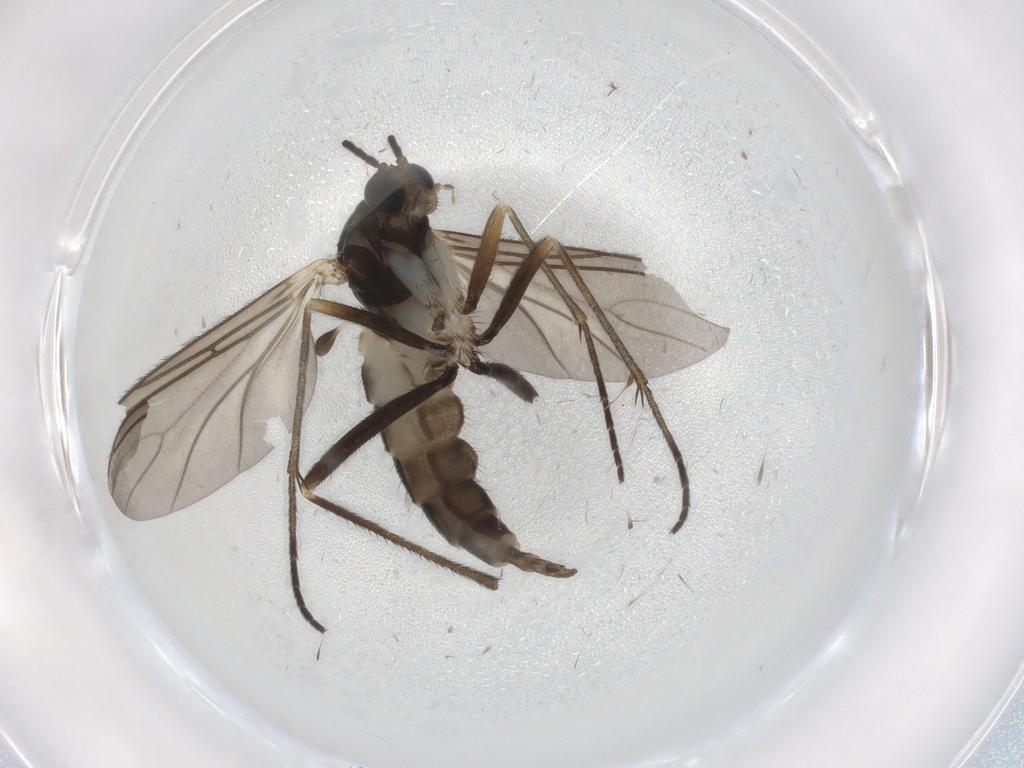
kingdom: Animalia
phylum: Arthropoda
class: Insecta
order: Diptera
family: Sciaridae
